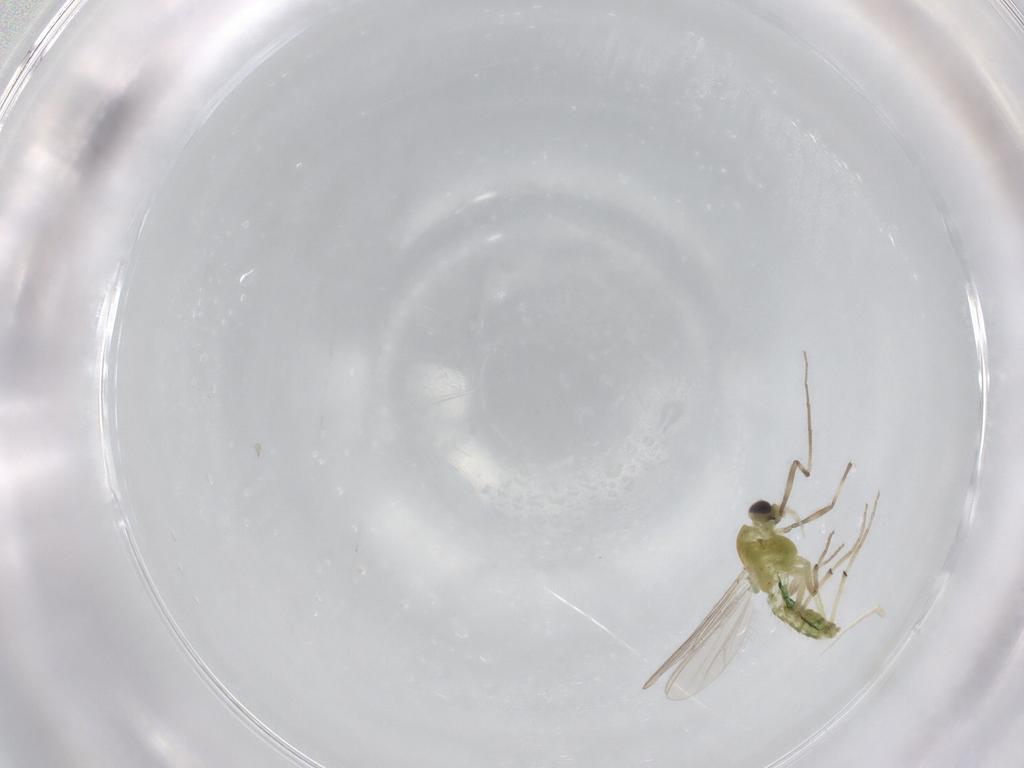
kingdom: Animalia
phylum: Arthropoda
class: Insecta
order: Diptera
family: Chironomidae
